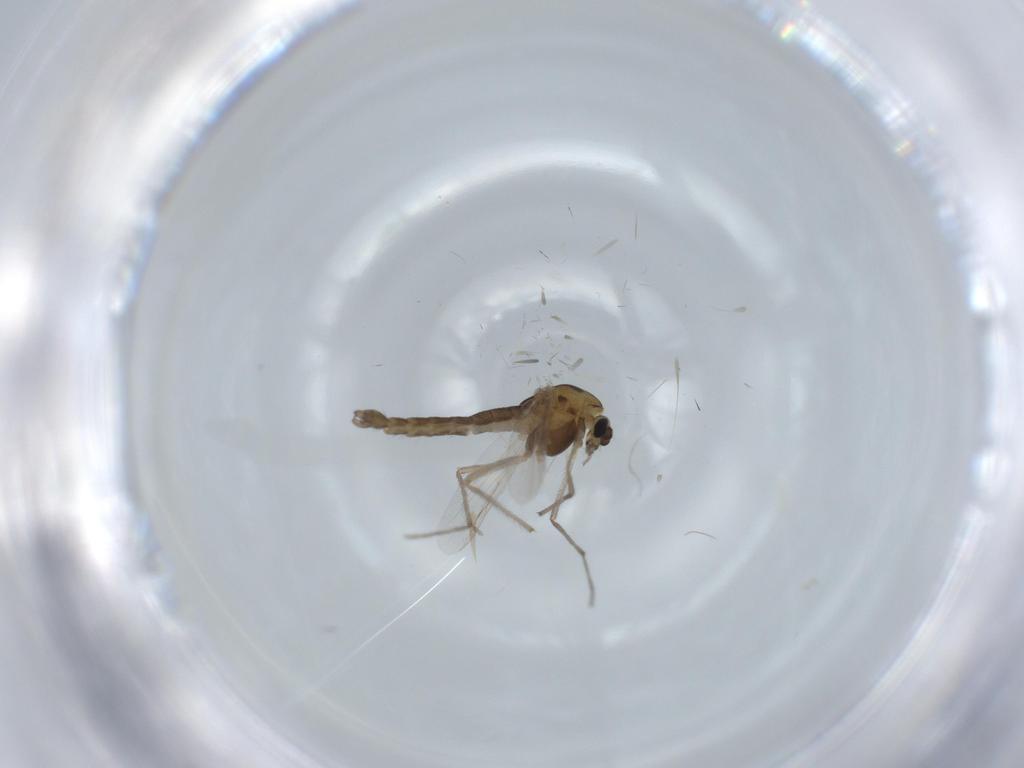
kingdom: Animalia
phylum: Arthropoda
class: Insecta
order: Diptera
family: Chironomidae
